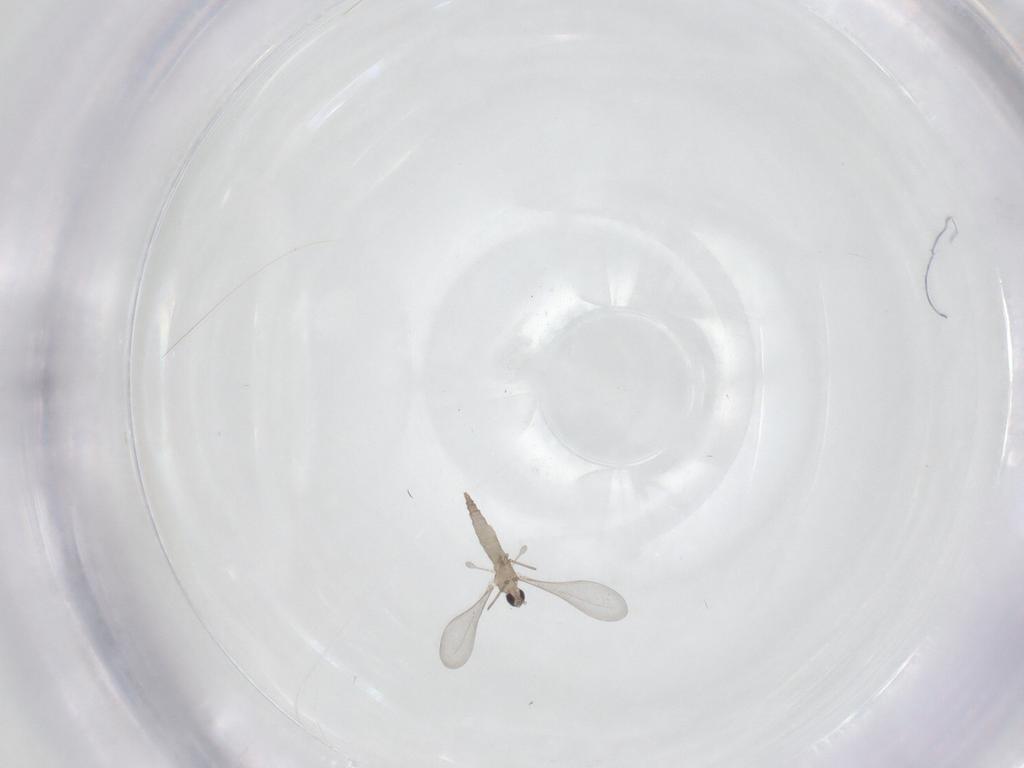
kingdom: Animalia
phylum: Arthropoda
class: Insecta
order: Diptera
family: Cecidomyiidae
